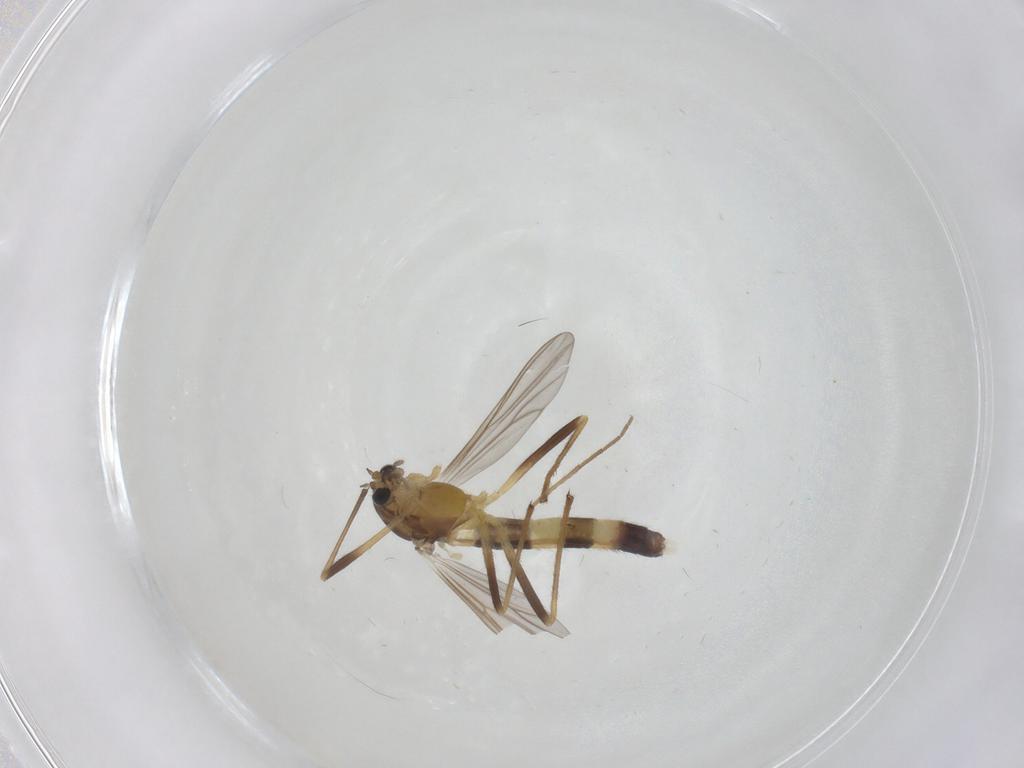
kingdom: Animalia
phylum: Arthropoda
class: Insecta
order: Diptera
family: Chironomidae
